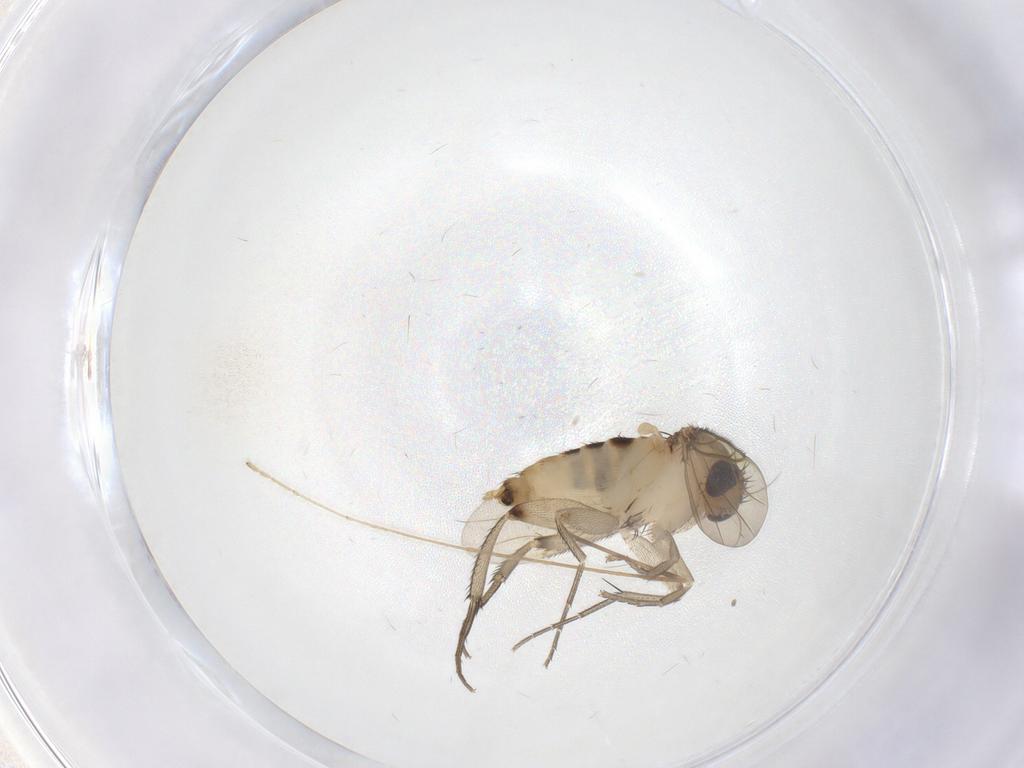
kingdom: Animalia
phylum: Arthropoda
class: Insecta
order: Diptera
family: Phoridae
